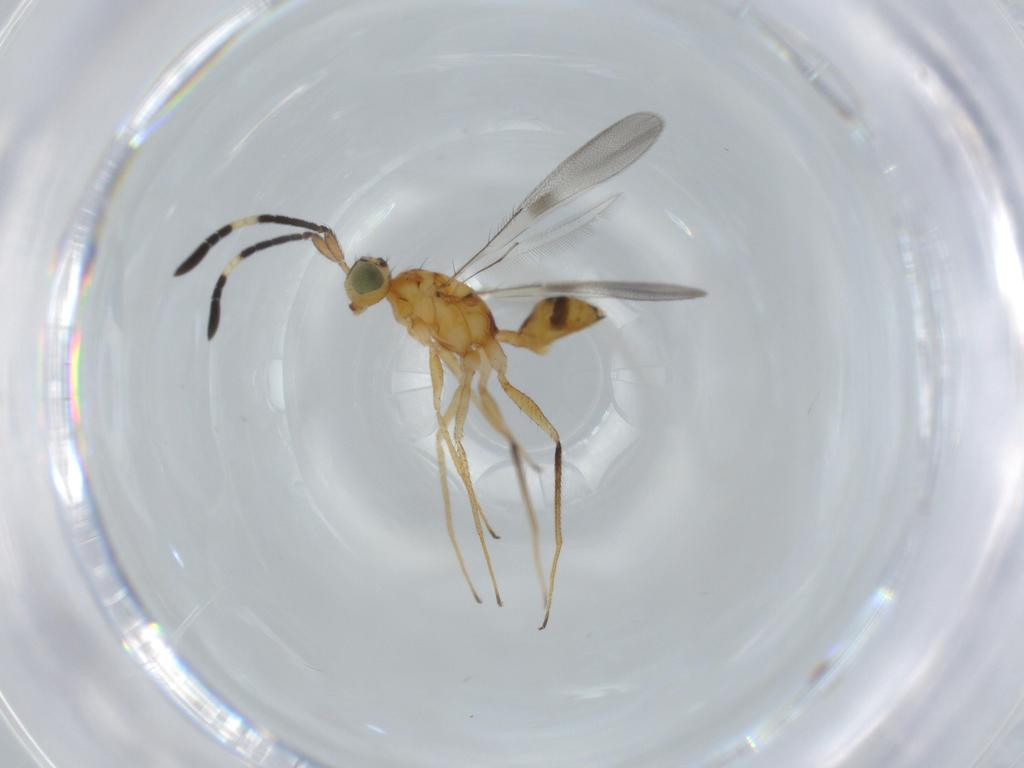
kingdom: Animalia
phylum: Arthropoda
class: Insecta
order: Hymenoptera
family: Mymaridae
